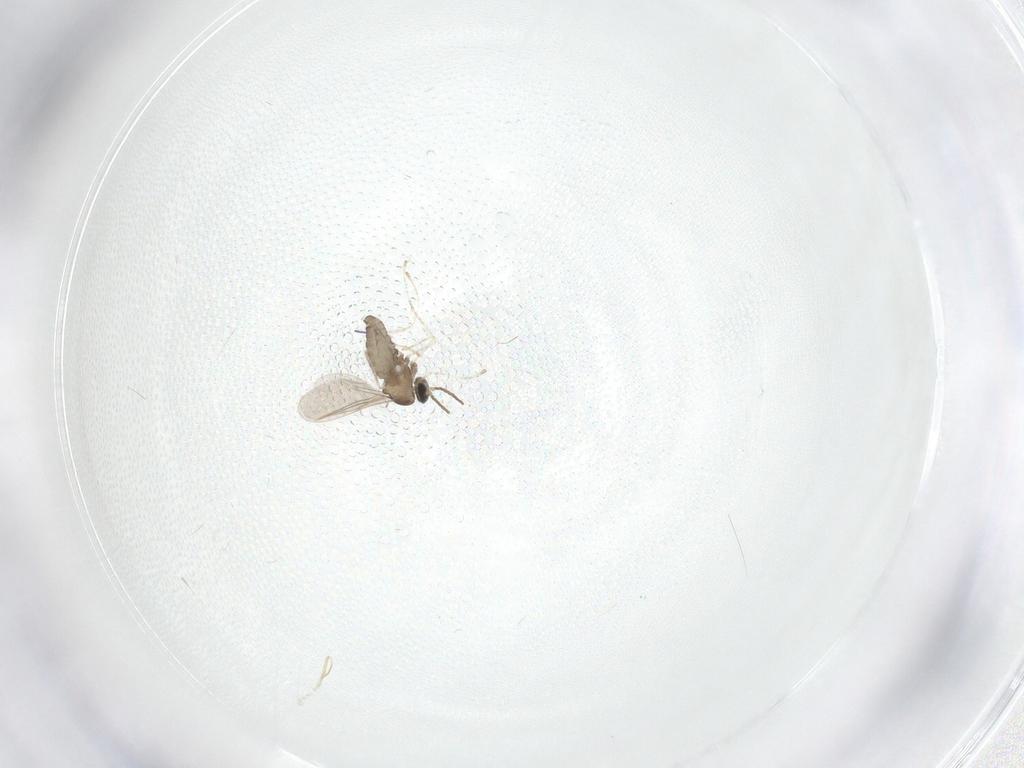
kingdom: Animalia
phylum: Arthropoda
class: Insecta
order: Diptera
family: Cecidomyiidae
